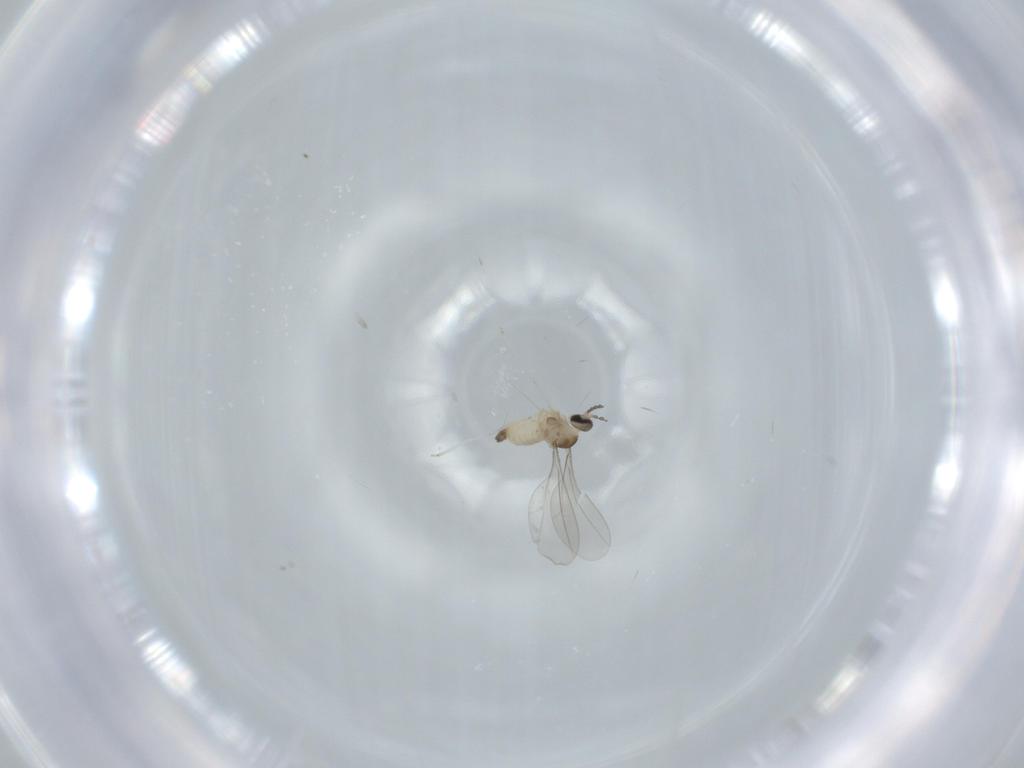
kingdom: Animalia
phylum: Arthropoda
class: Insecta
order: Diptera
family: Cecidomyiidae
